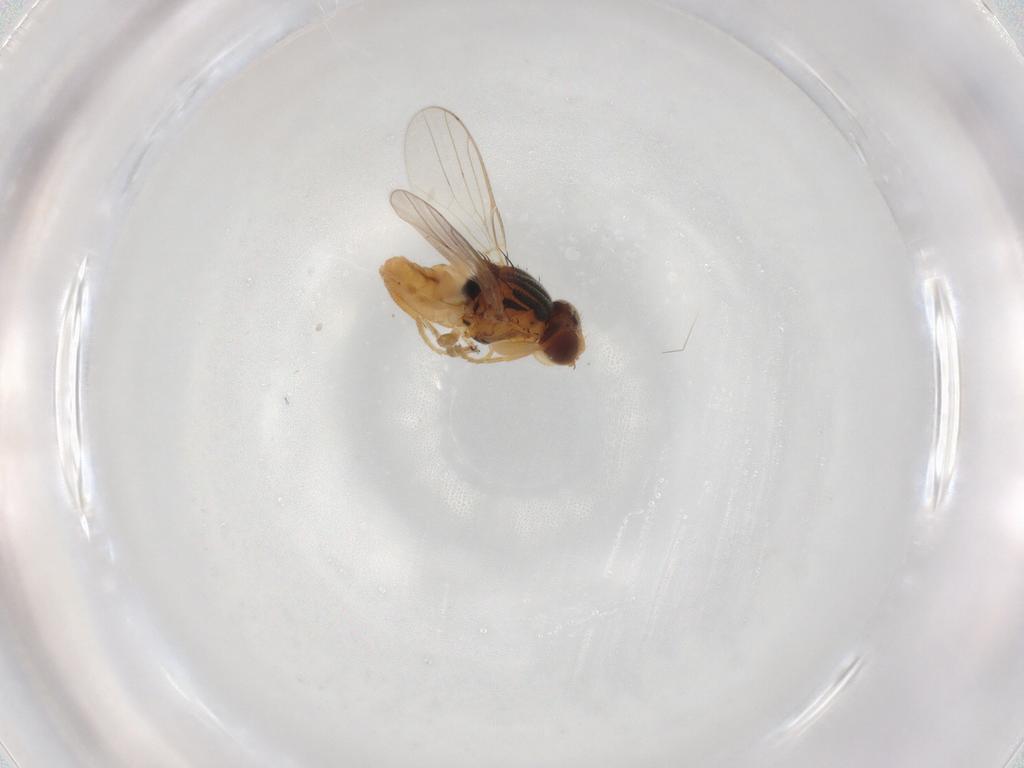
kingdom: Animalia
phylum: Arthropoda
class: Insecta
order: Diptera
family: Chloropidae
